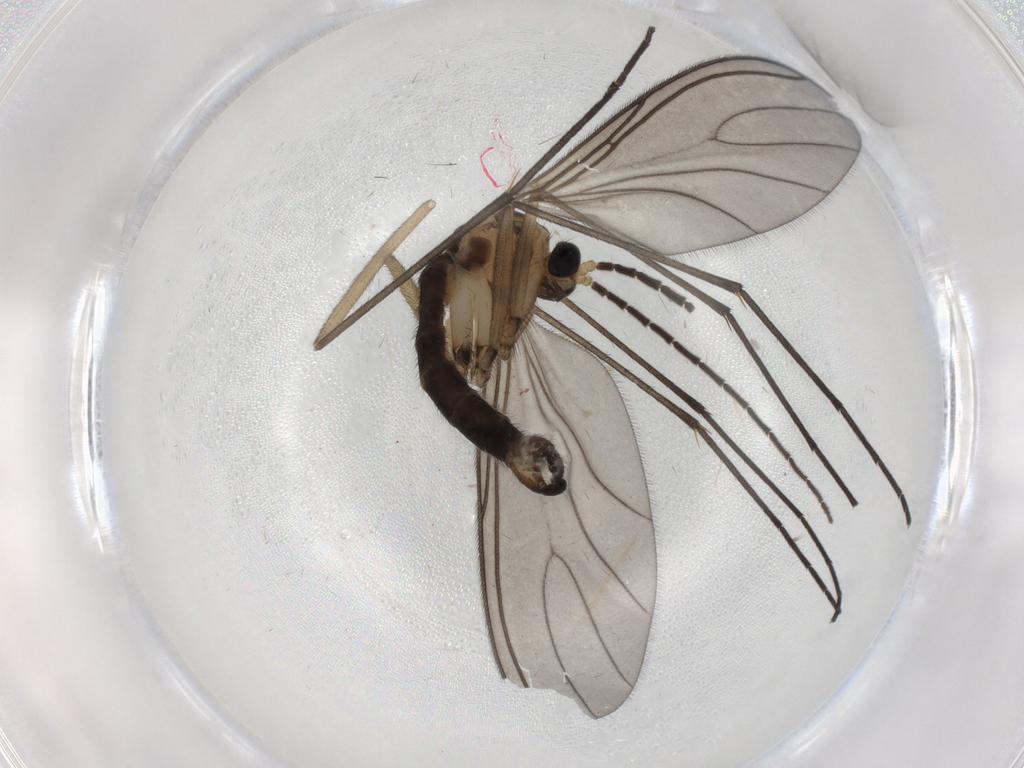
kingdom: Animalia
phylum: Arthropoda
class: Insecta
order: Diptera
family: Sciaridae
